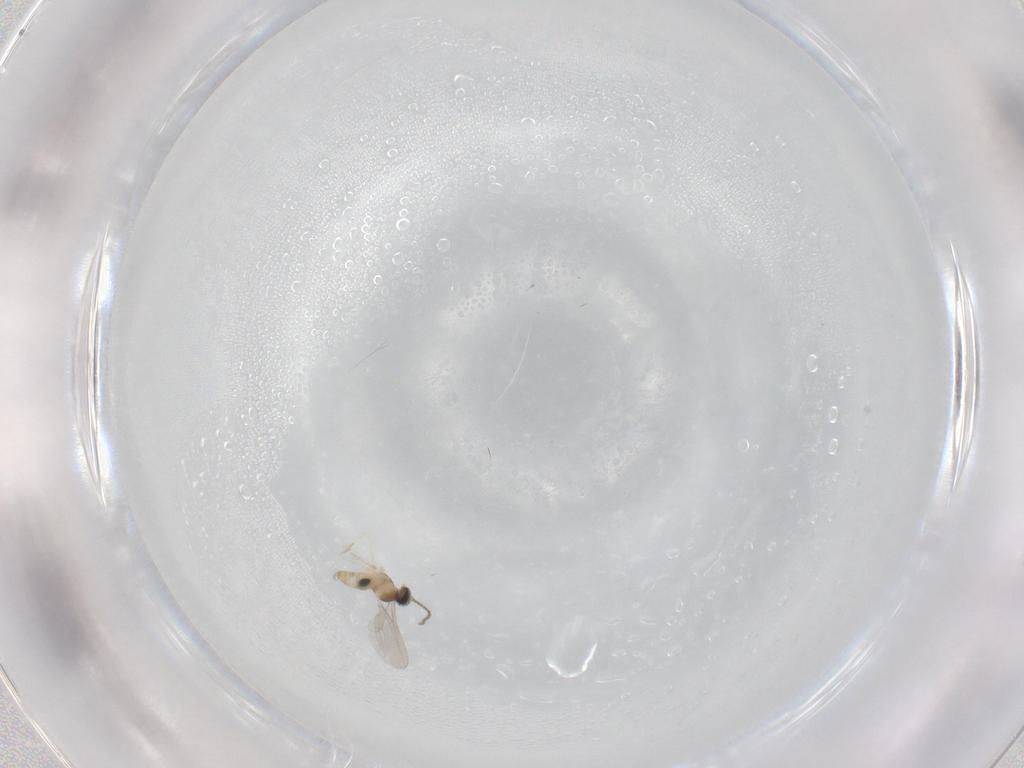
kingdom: Animalia
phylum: Arthropoda
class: Insecta
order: Diptera
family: Cecidomyiidae
